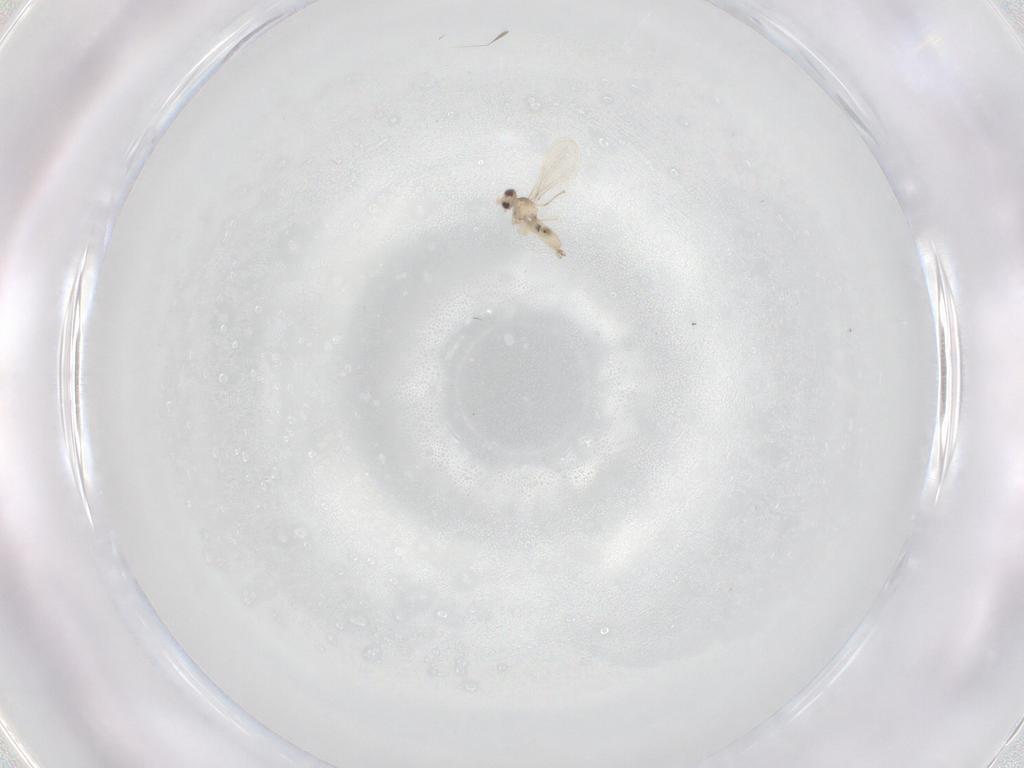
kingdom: Animalia
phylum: Arthropoda
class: Insecta
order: Diptera
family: Cecidomyiidae
